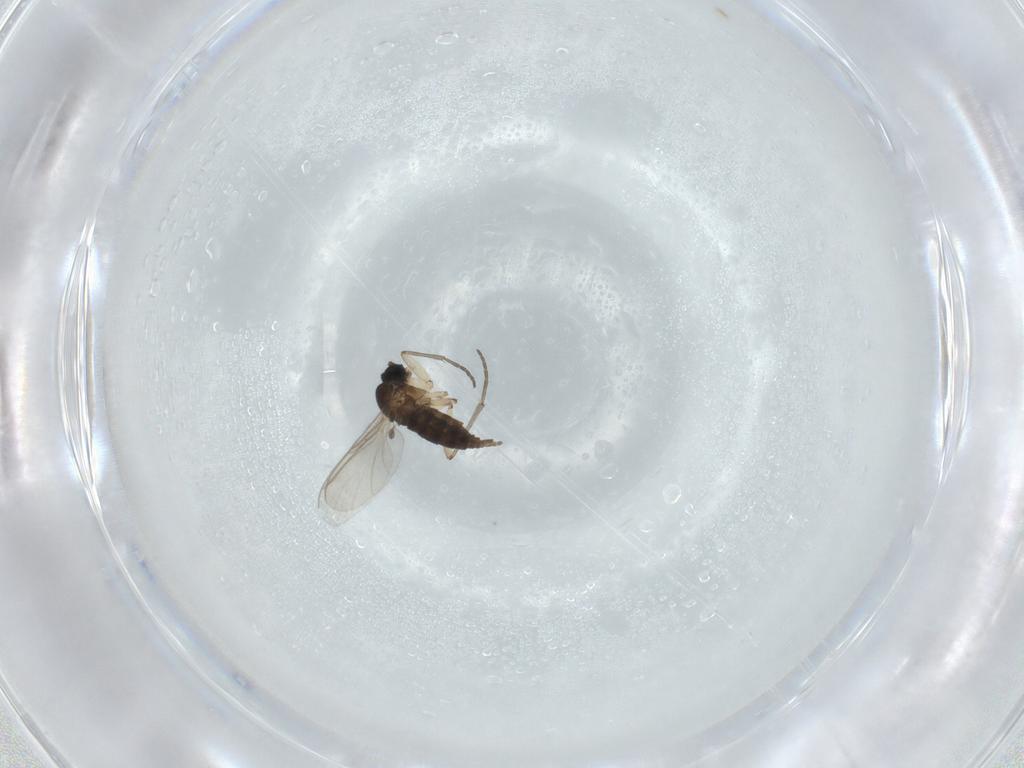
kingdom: Animalia
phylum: Arthropoda
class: Insecta
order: Diptera
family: Sciaridae
